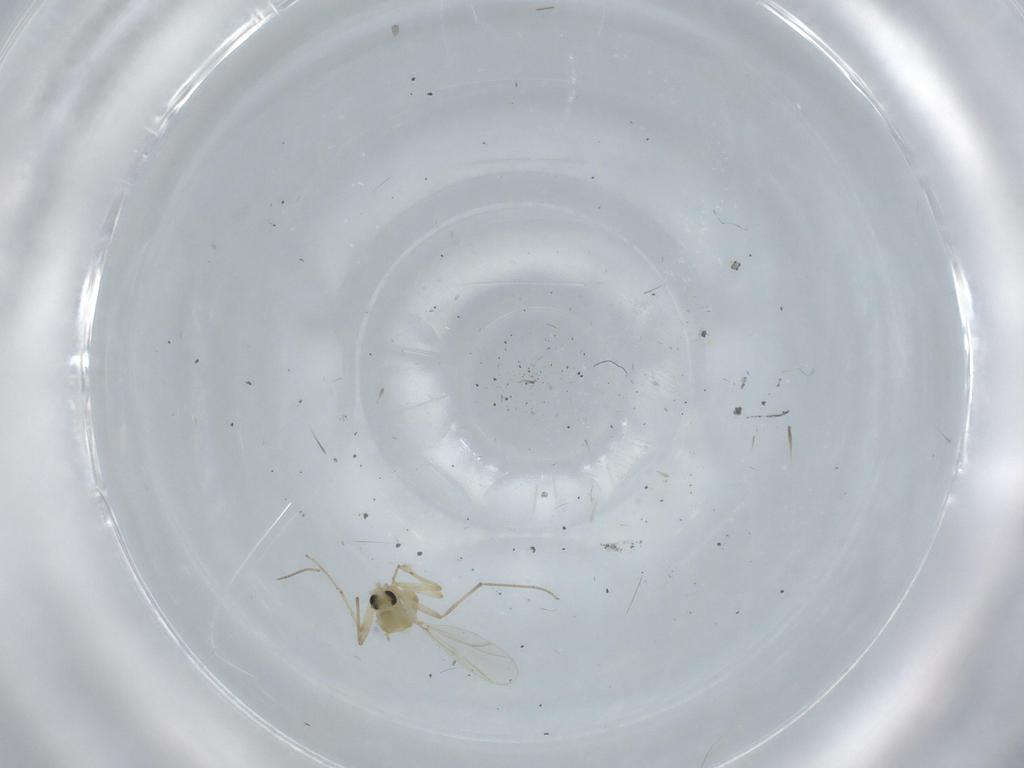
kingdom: Animalia
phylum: Arthropoda
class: Insecta
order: Diptera
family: Chironomidae
